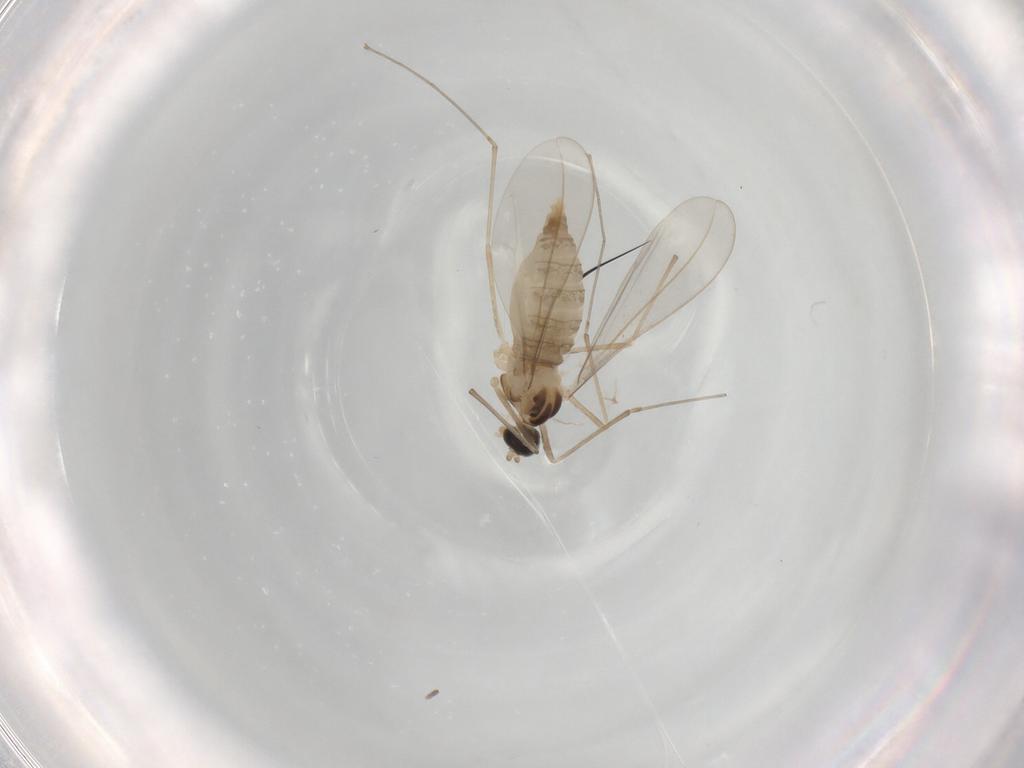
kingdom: Animalia
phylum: Arthropoda
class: Insecta
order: Diptera
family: Cecidomyiidae
